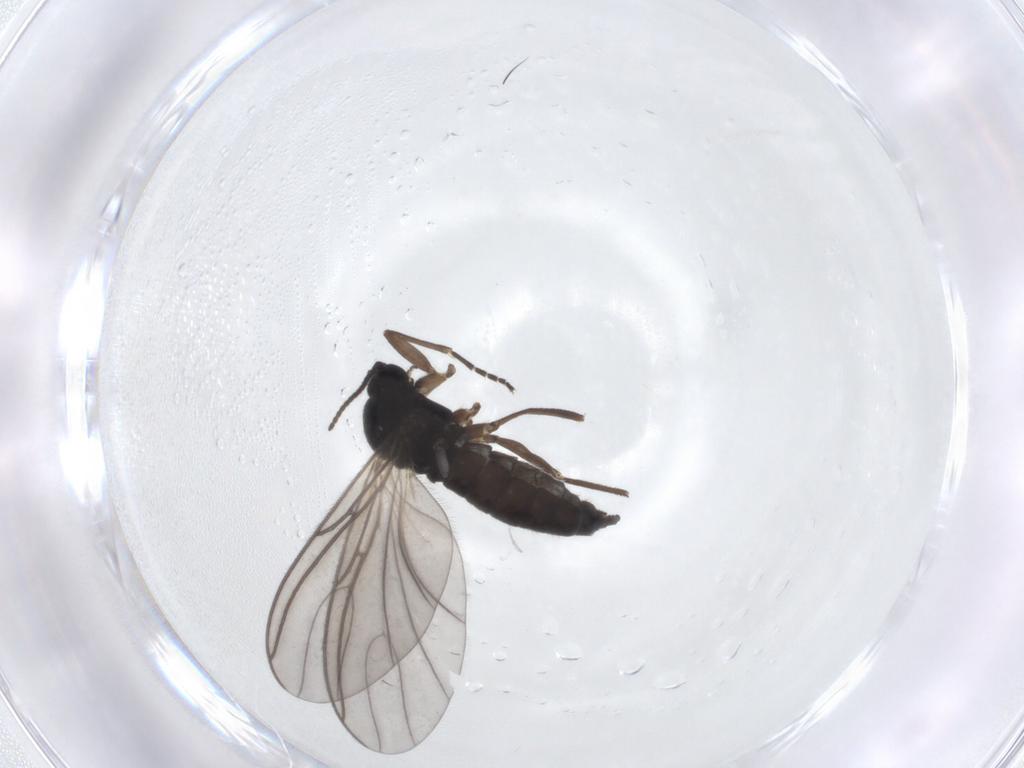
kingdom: Animalia
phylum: Arthropoda
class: Insecta
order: Diptera
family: Sciaridae
